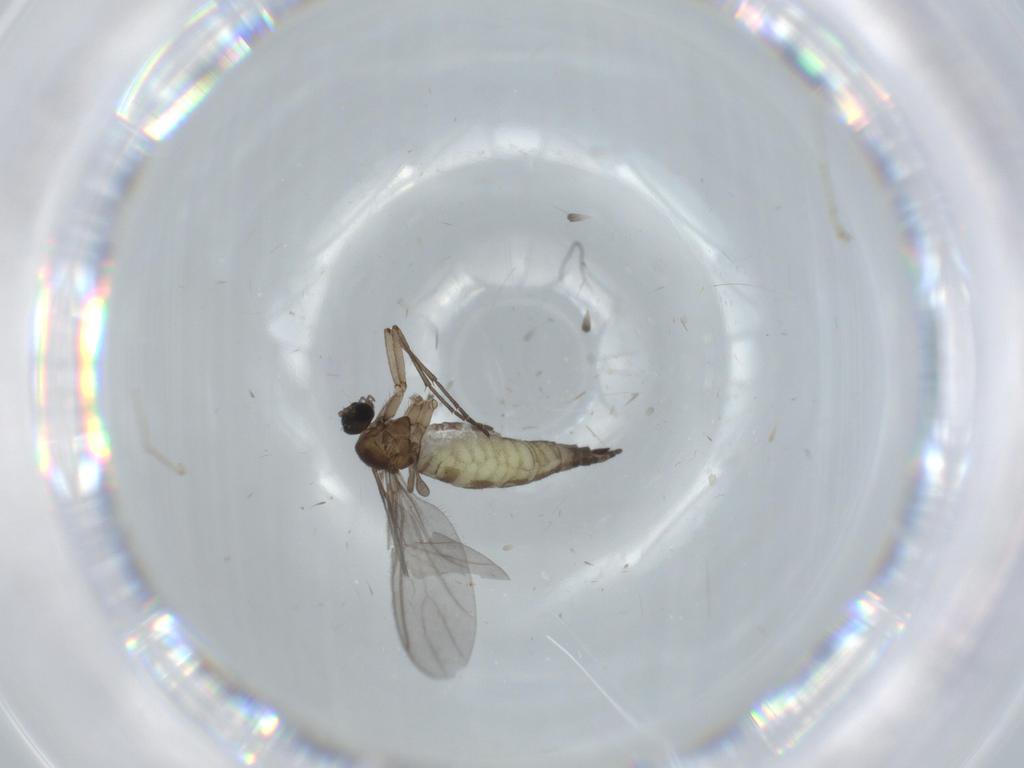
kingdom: Animalia
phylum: Arthropoda
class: Insecta
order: Diptera
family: Sciaridae
